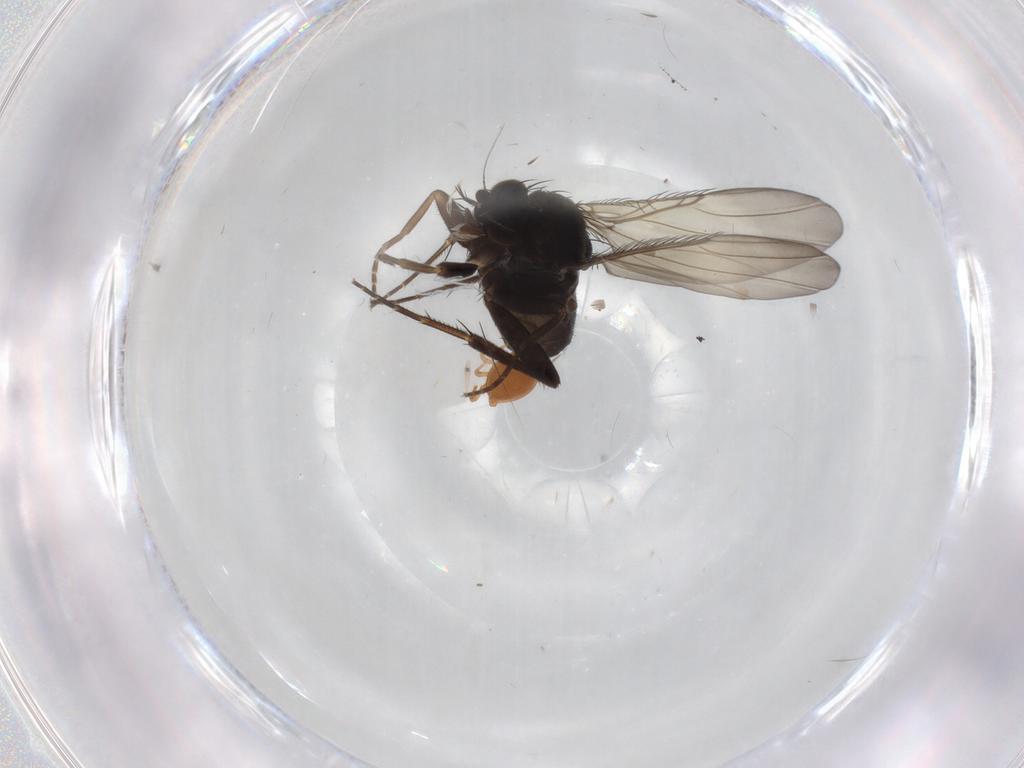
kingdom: Animalia
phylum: Arthropoda
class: Insecta
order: Diptera
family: Phoridae
